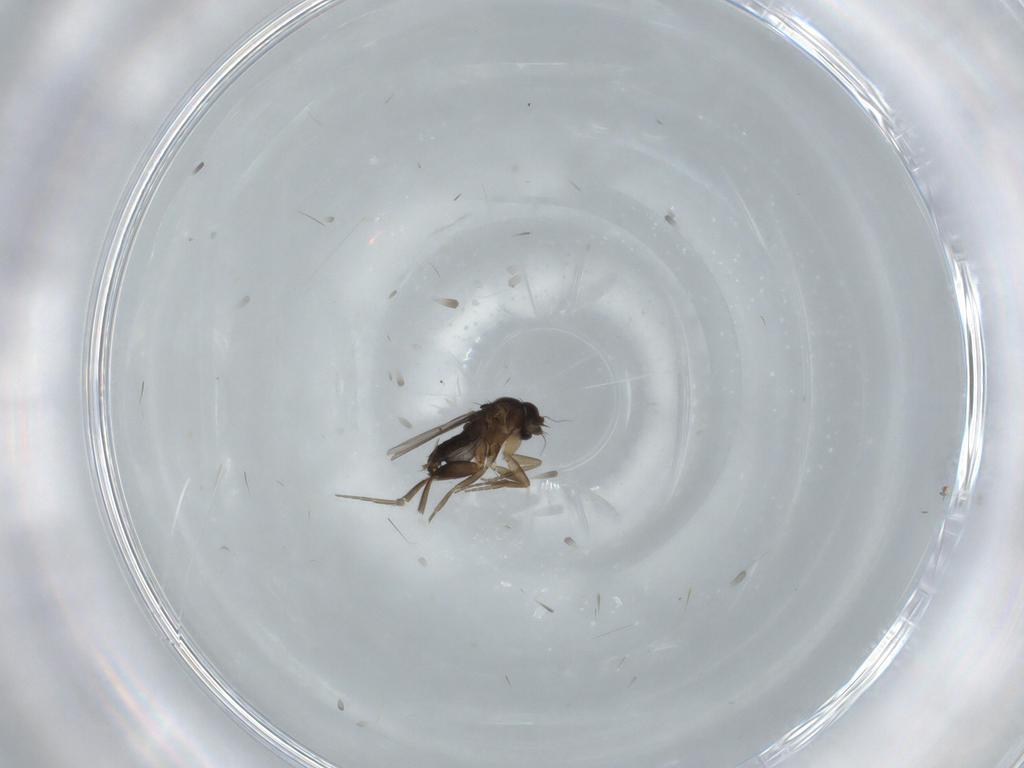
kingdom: Animalia
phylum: Arthropoda
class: Insecta
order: Diptera
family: Phoridae
